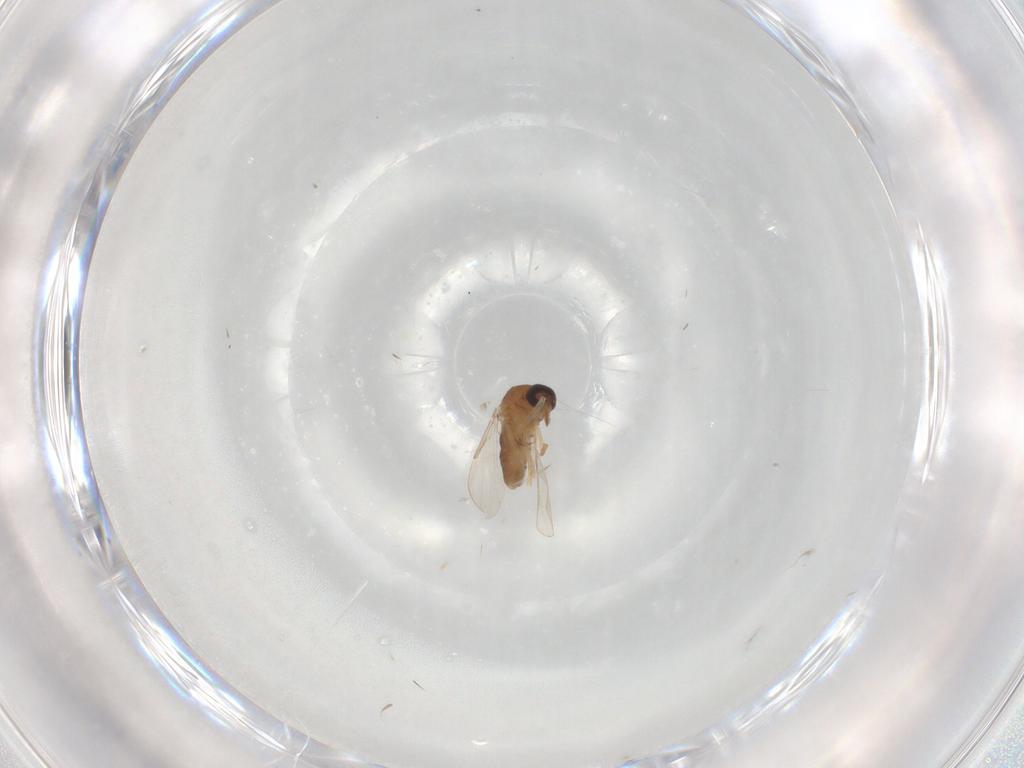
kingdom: Animalia
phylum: Arthropoda
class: Insecta
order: Diptera
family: Ceratopogonidae
